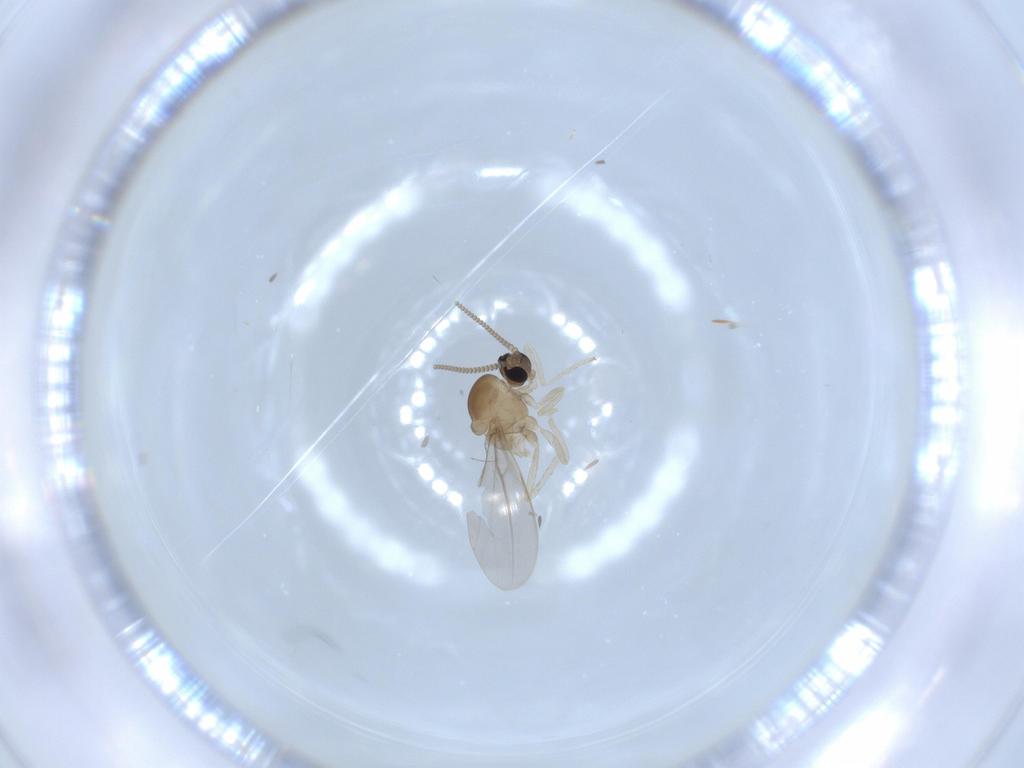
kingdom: Animalia
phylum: Arthropoda
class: Insecta
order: Diptera
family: Cecidomyiidae
